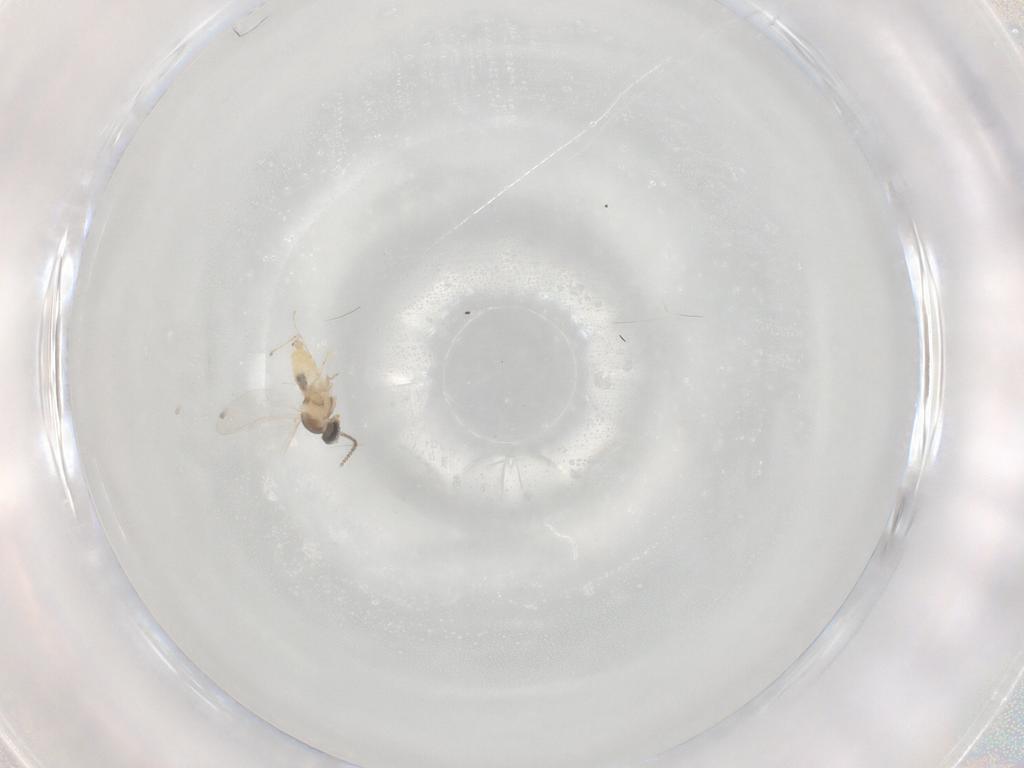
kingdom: Animalia
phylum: Arthropoda
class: Insecta
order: Diptera
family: Cecidomyiidae
